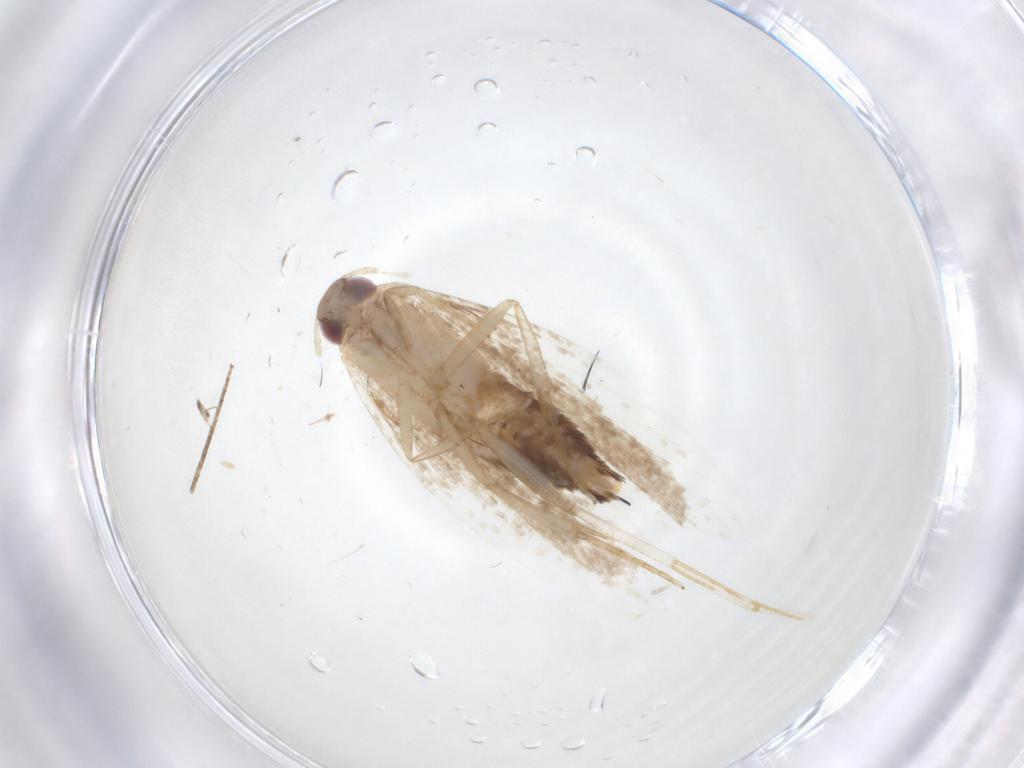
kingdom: Animalia
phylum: Arthropoda
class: Insecta
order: Lepidoptera
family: Gelechiidae
